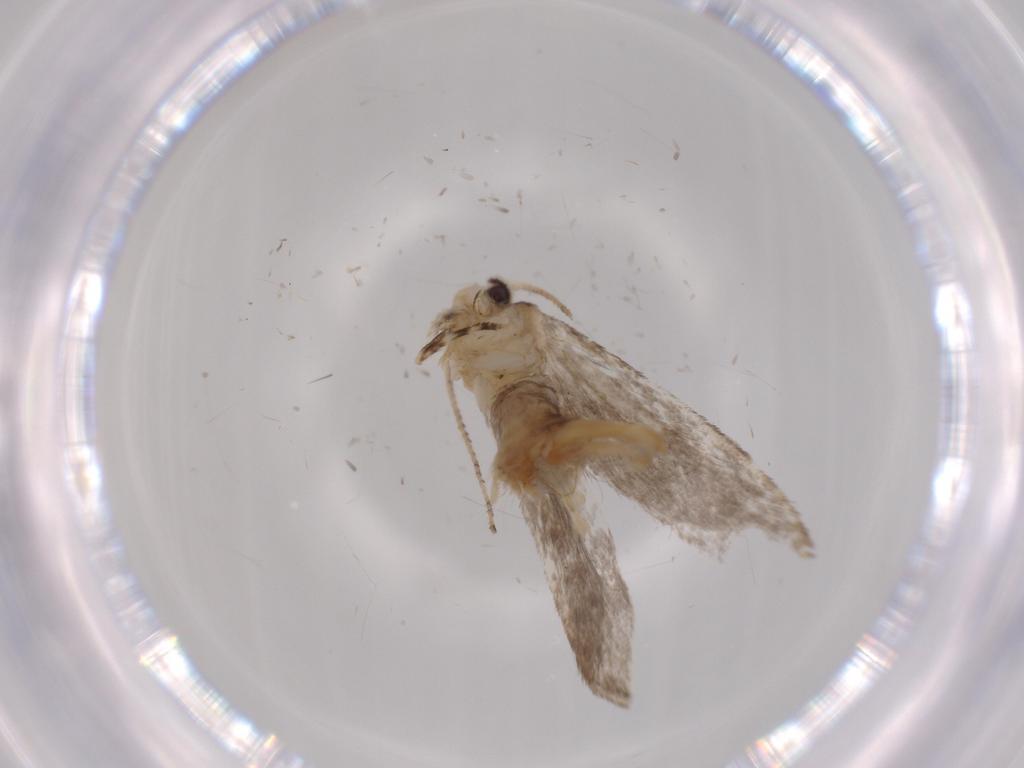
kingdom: Animalia
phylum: Arthropoda
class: Insecta
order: Lepidoptera
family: Tineidae
